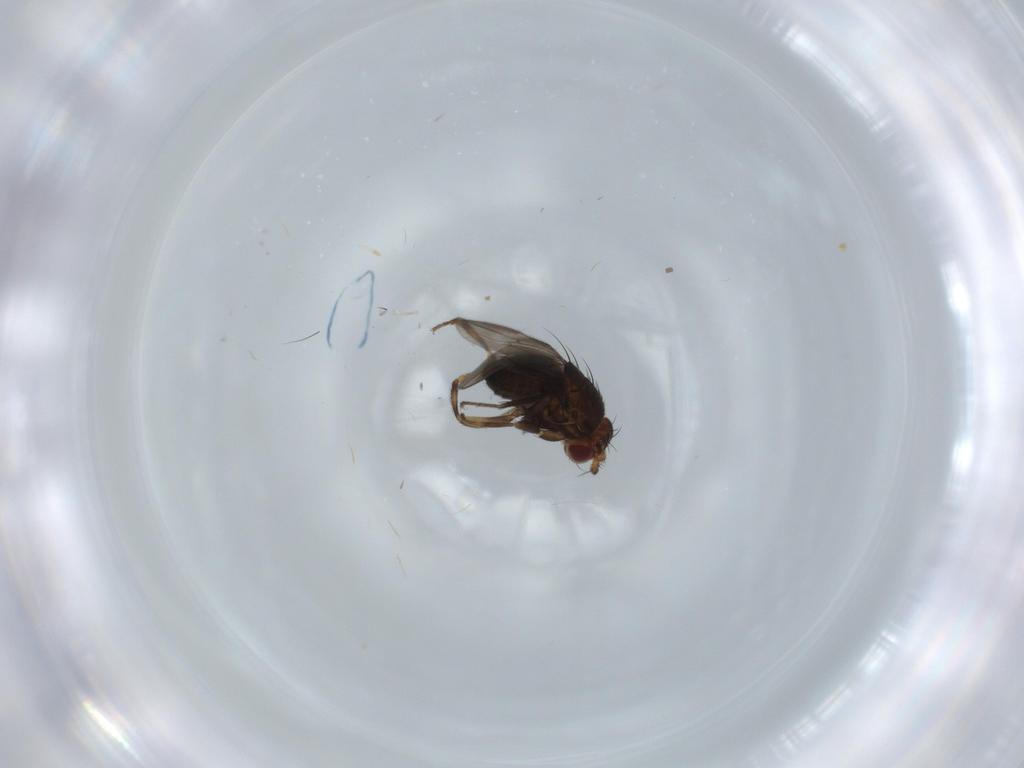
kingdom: Animalia
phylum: Arthropoda
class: Insecta
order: Diptera
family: Sphaeroceridae
